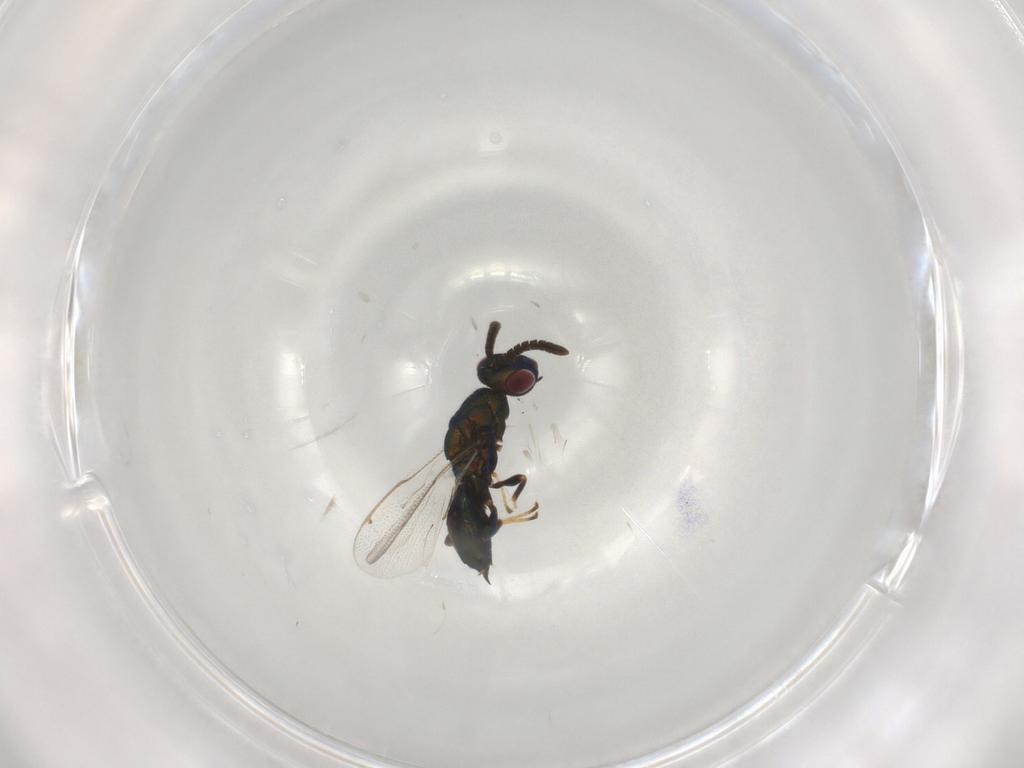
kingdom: Animalia
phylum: Arthropoda
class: Insecta
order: Hymenoptera
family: Torymidae
